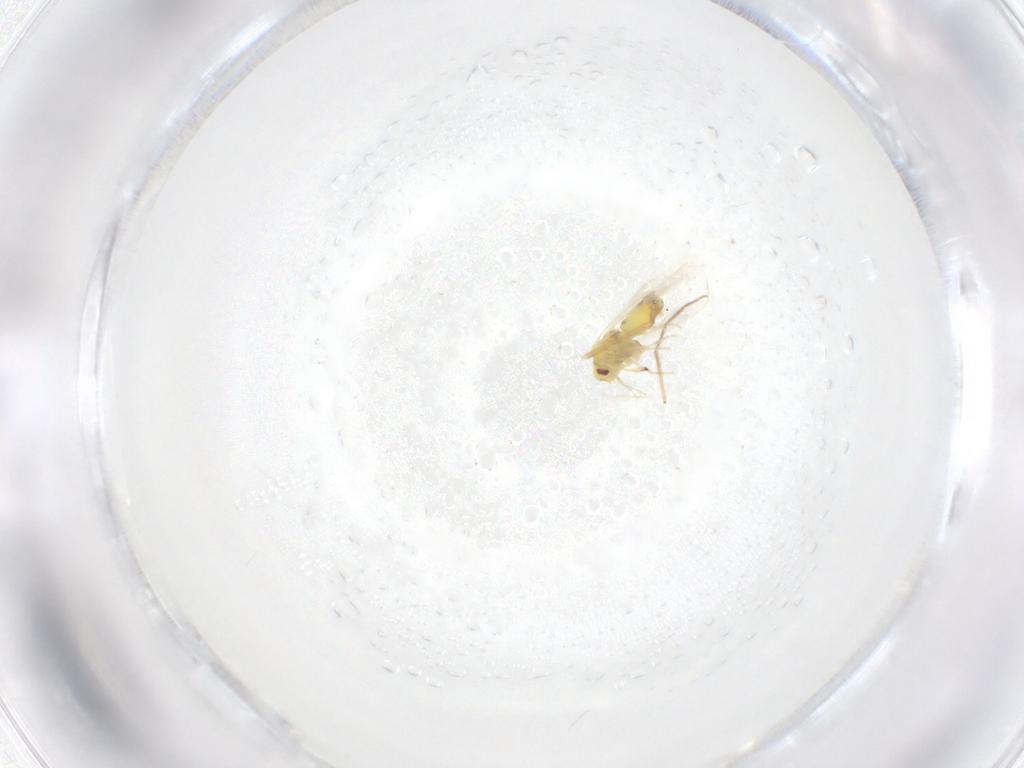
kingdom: Animalia
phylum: Arthropoda
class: Insecta
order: Hemiptera
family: Aleyrodidae
